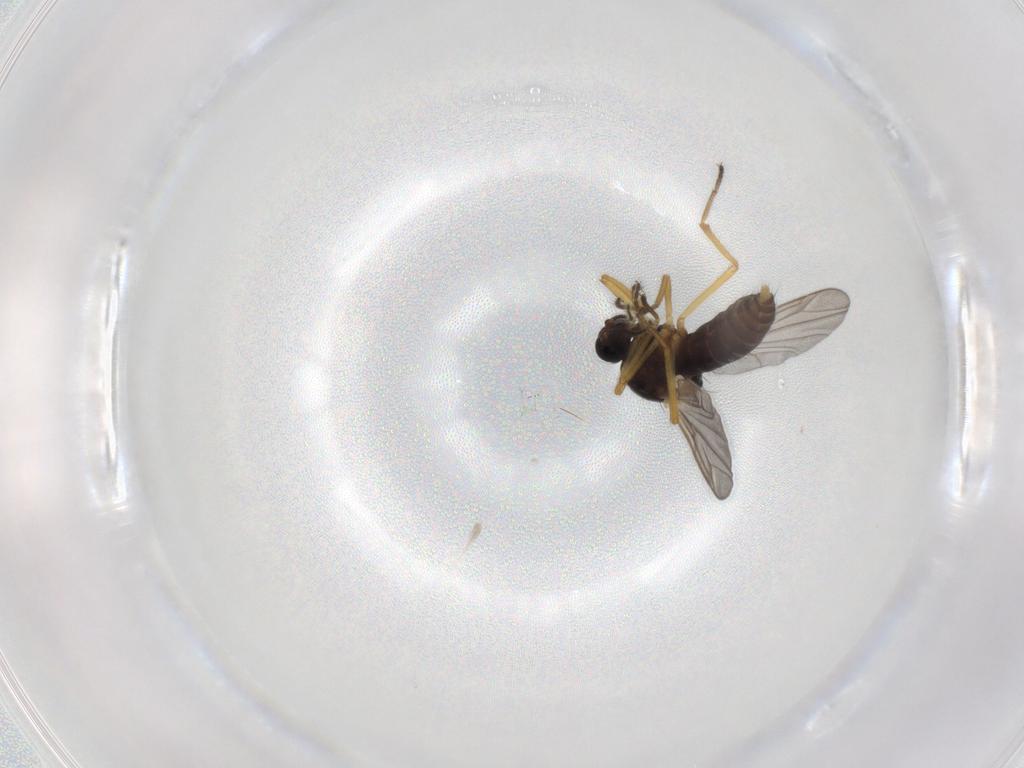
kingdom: Animalia
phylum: Arthropoda
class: Insecta
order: Diptera
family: Ceratopogonidae
